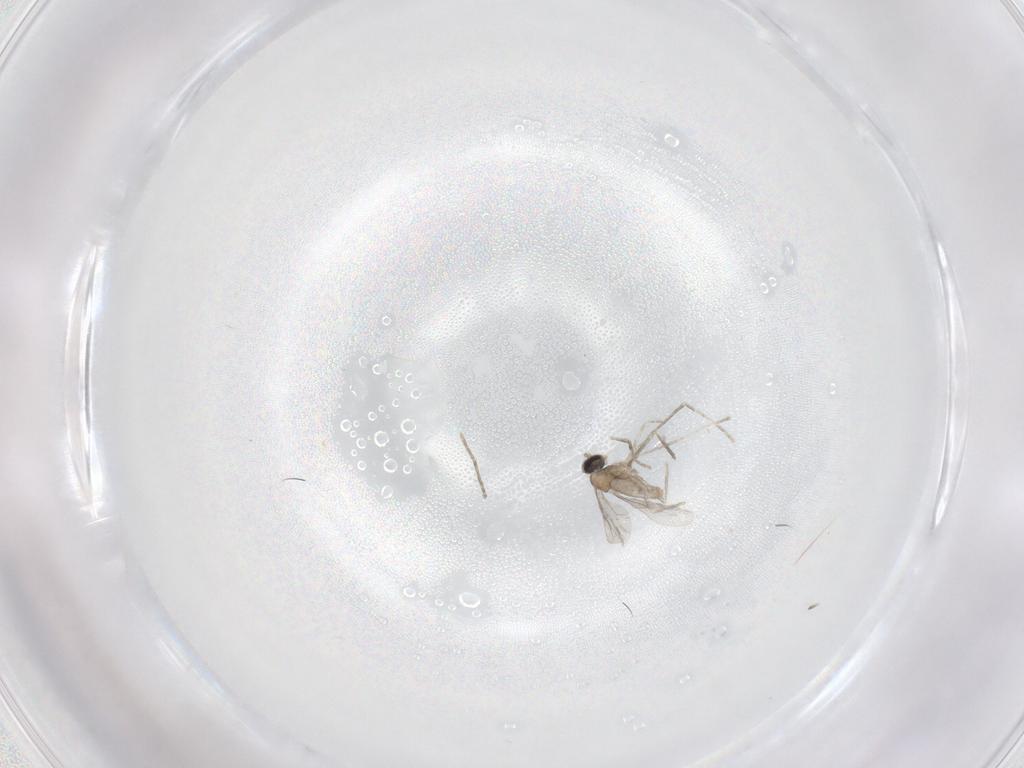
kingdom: Animalia
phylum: Arthropoda
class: Insecta
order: Diptera
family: Cecidomyiidae
